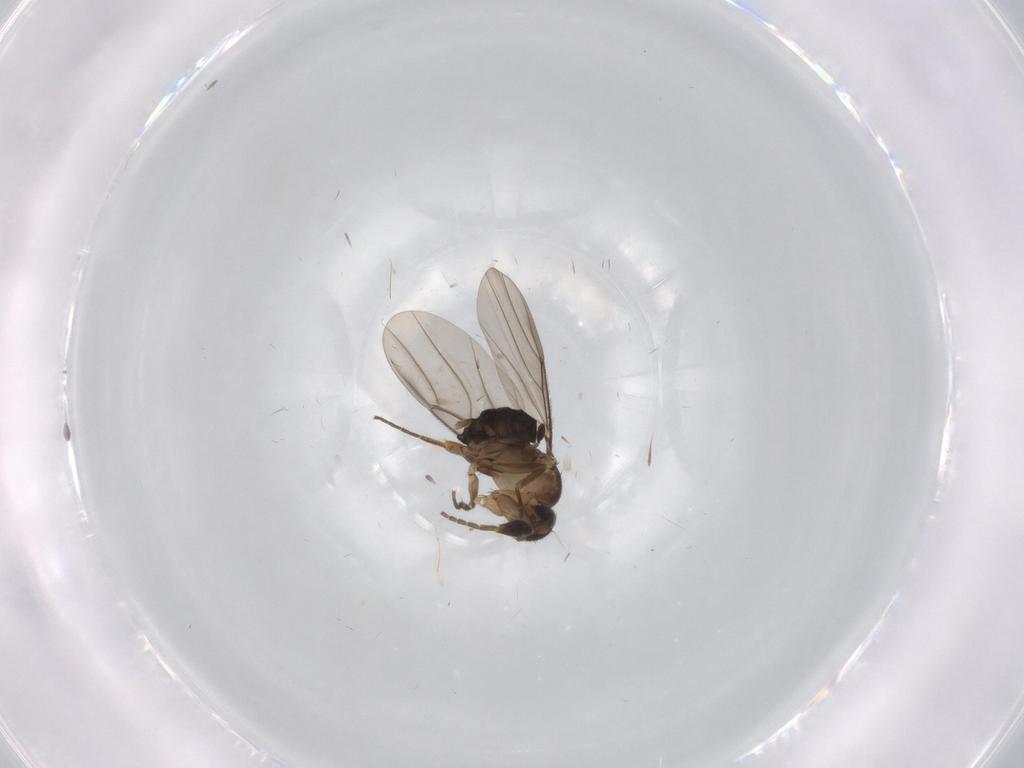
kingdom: Animalia
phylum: Arthropoda
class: Insecta
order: Diptera
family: Phoridae
